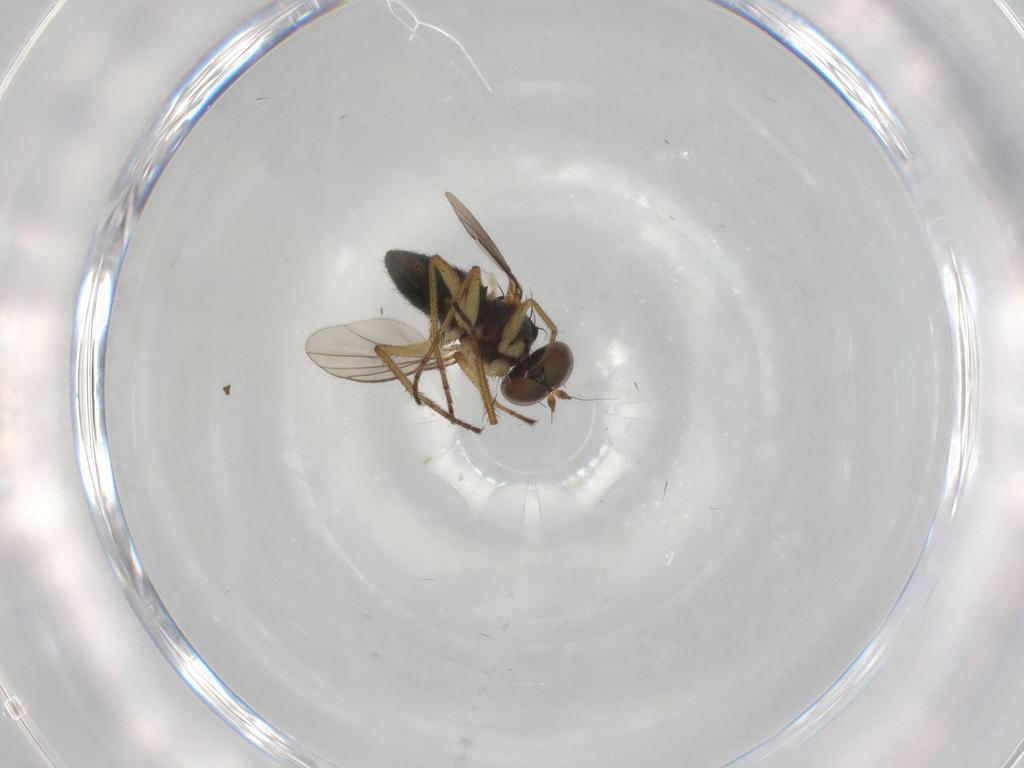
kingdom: Animalia
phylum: Arthropoda
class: Insecta
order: Diptera
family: Dolichopodidae
